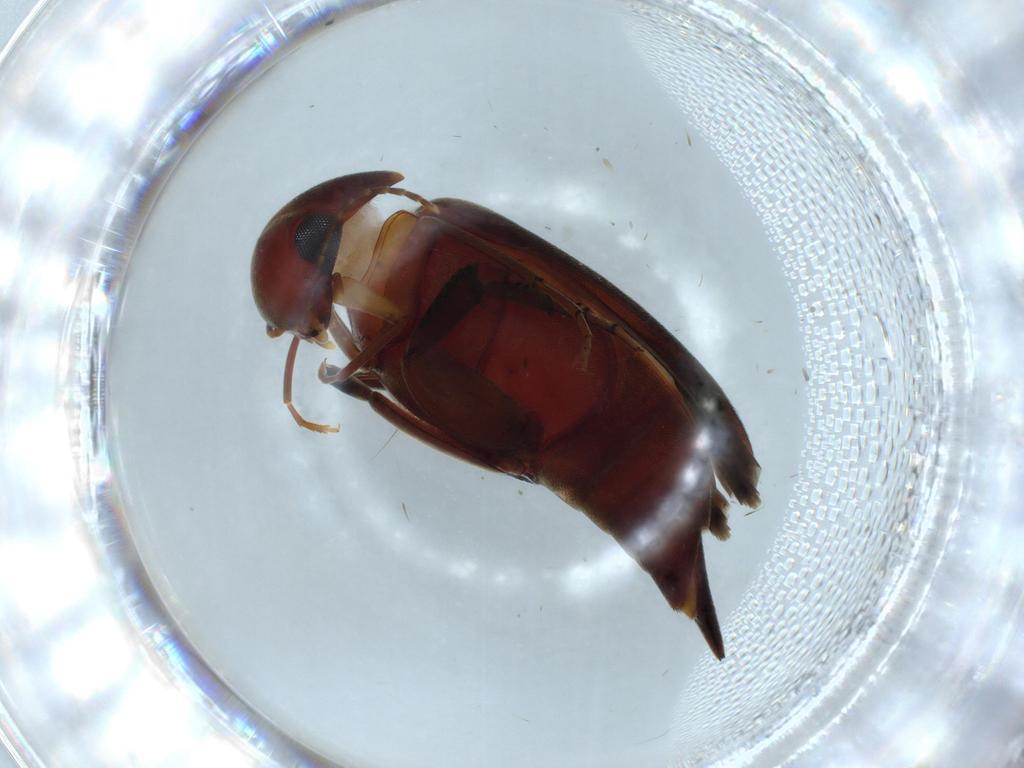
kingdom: Animalia
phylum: Arthropoda
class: Insecta
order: Coleoptera
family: Mordellidae
